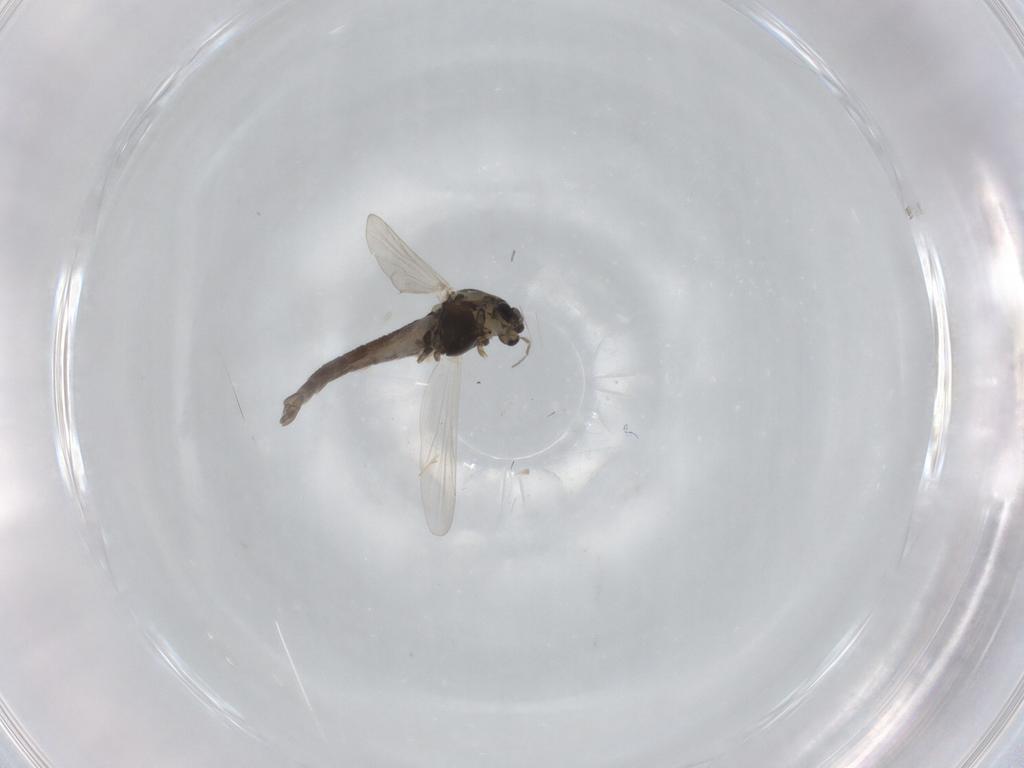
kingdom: Animalia
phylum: Arthropoda
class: Insecta
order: Diptera
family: Chironomidae
